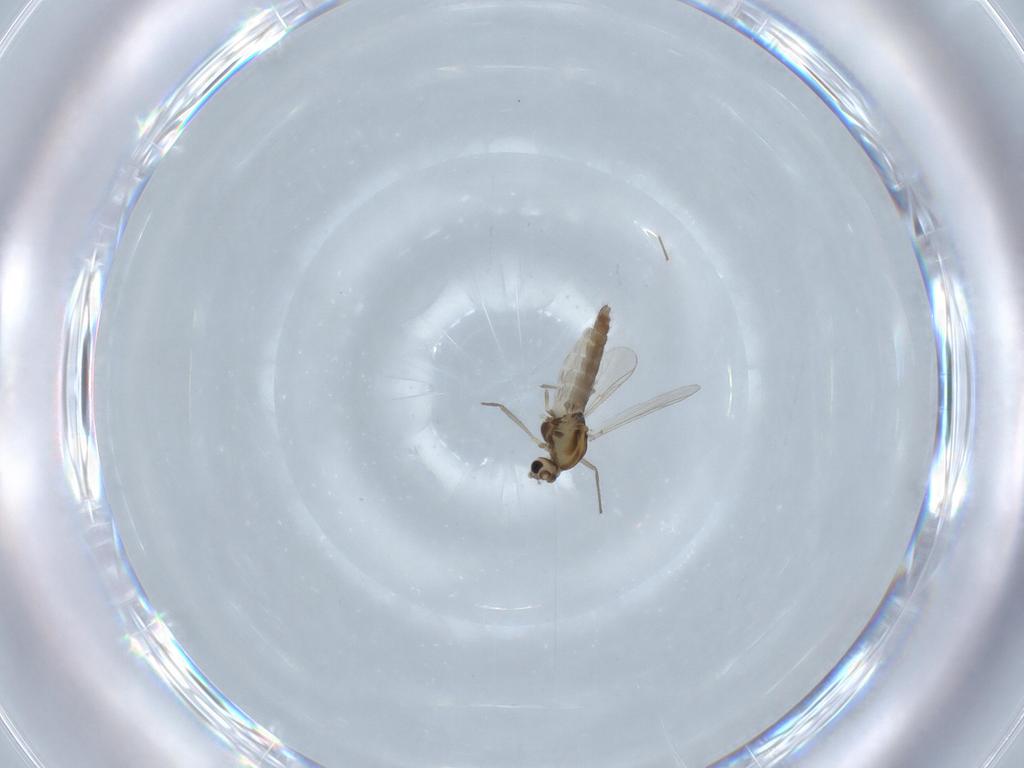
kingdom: Animalia
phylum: Arthropoda
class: Insecta
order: Diptera
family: Chironomidae
